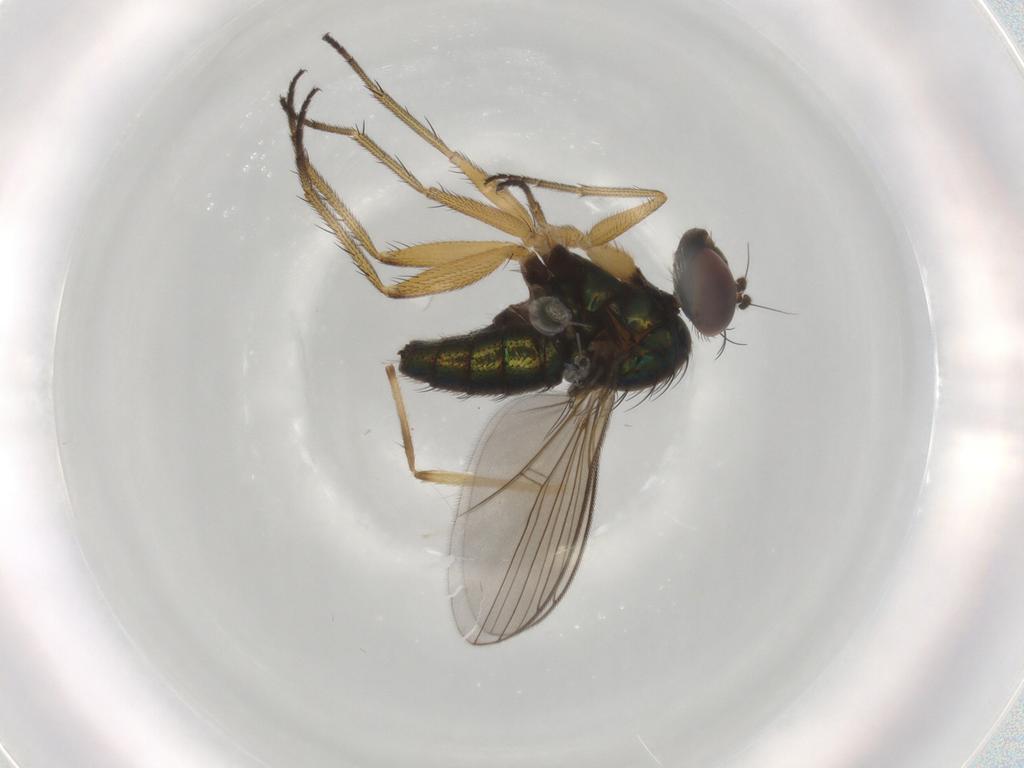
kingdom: Animalia
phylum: Arthropoda
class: Insecta
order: Diptera
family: Dolichopodidae
